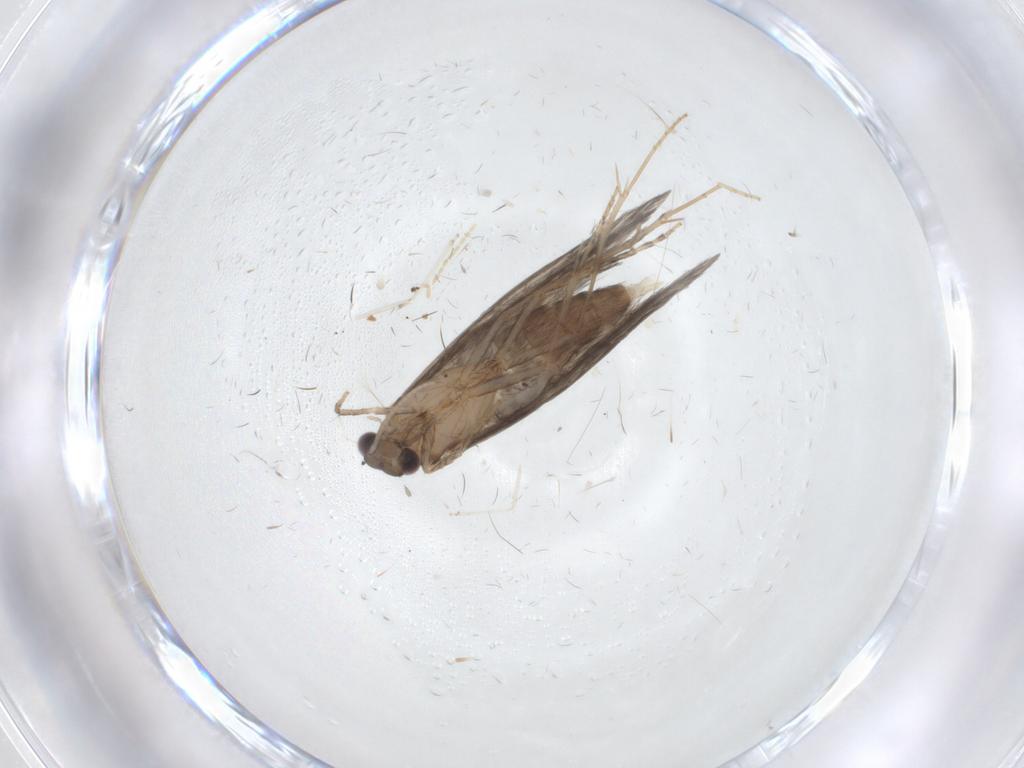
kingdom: Animalia
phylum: Arthropoda
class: Insecta
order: Trichoptera
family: Hydroptilidae
